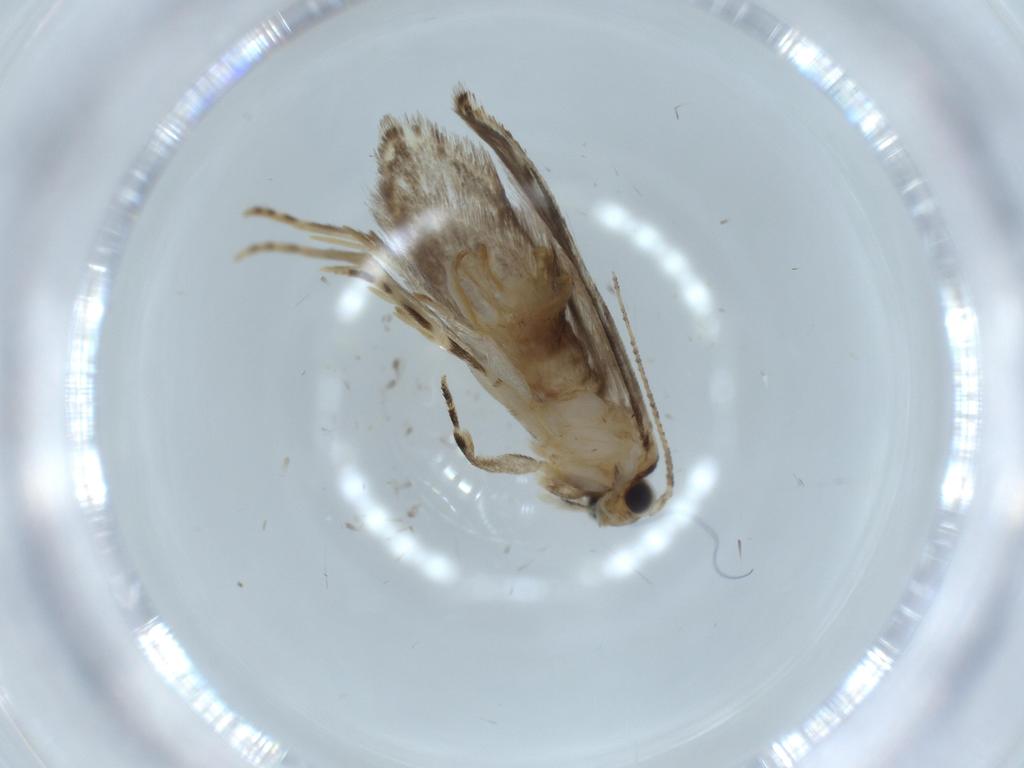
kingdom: Animalia
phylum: Arthropoda
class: Insecta
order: Lepidoptera
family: Tineidae
